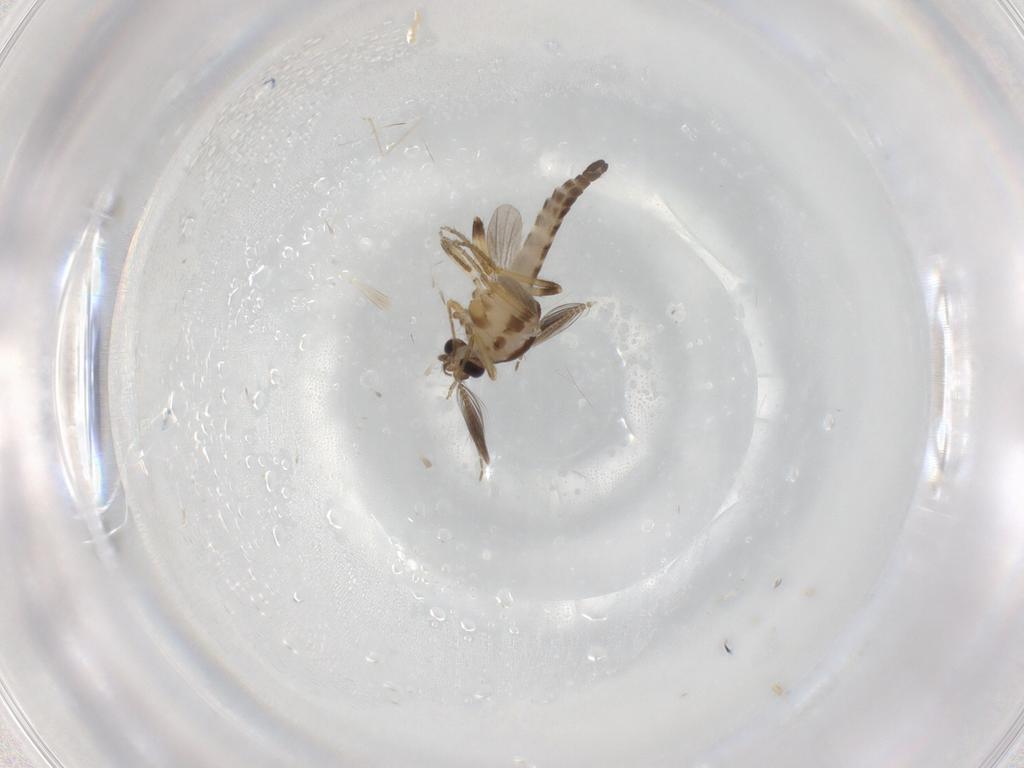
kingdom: Animalia
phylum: Arthropoda
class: Insecta
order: Diptera
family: Ceratopogonidae
